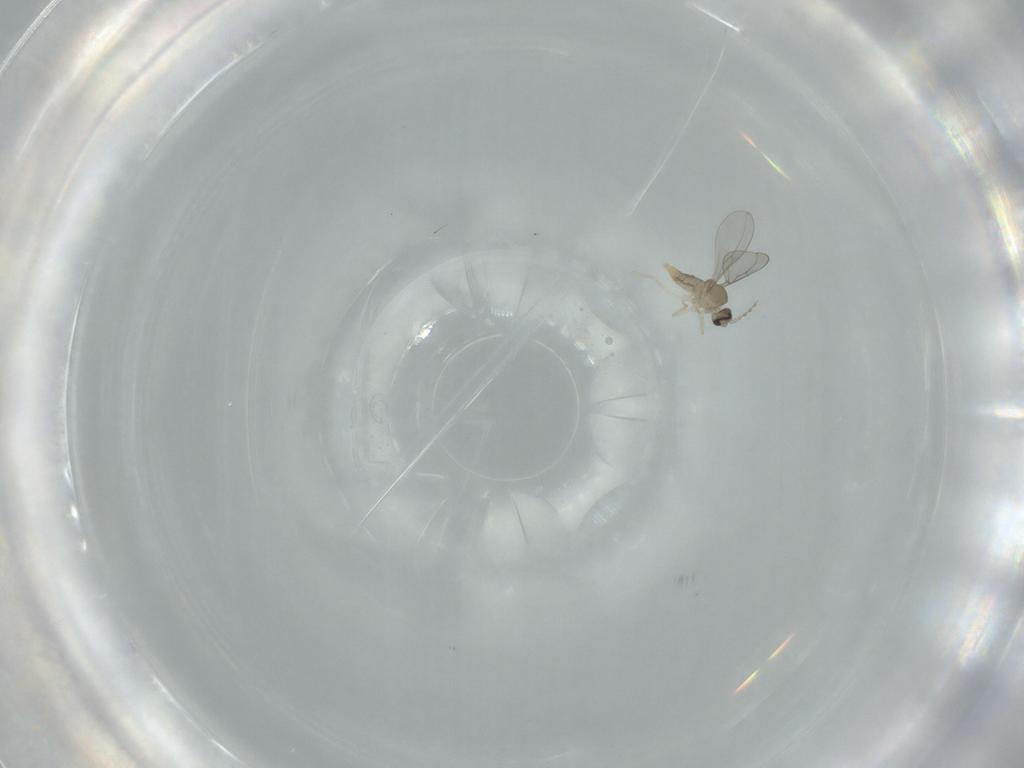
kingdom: Animalia
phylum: Arthropoda
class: Insecta
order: Diptera
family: Cecidomyiidae
